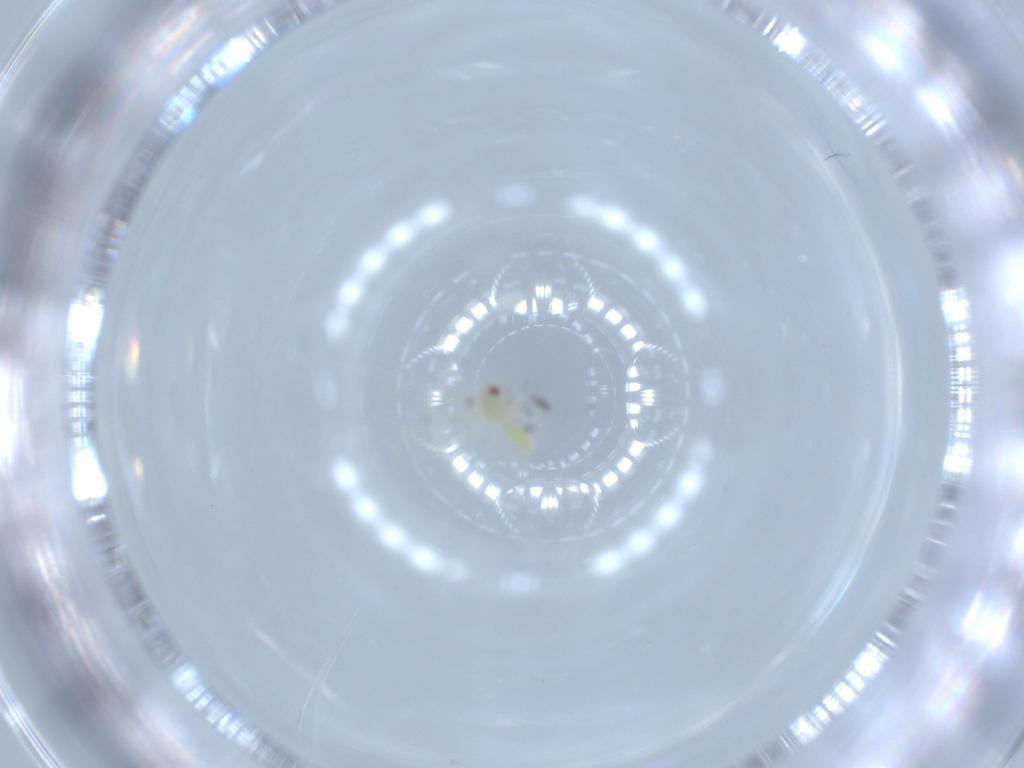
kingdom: Animalia
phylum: Arthropoda
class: Insecta
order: Hemiptera
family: Aleyrodidae
